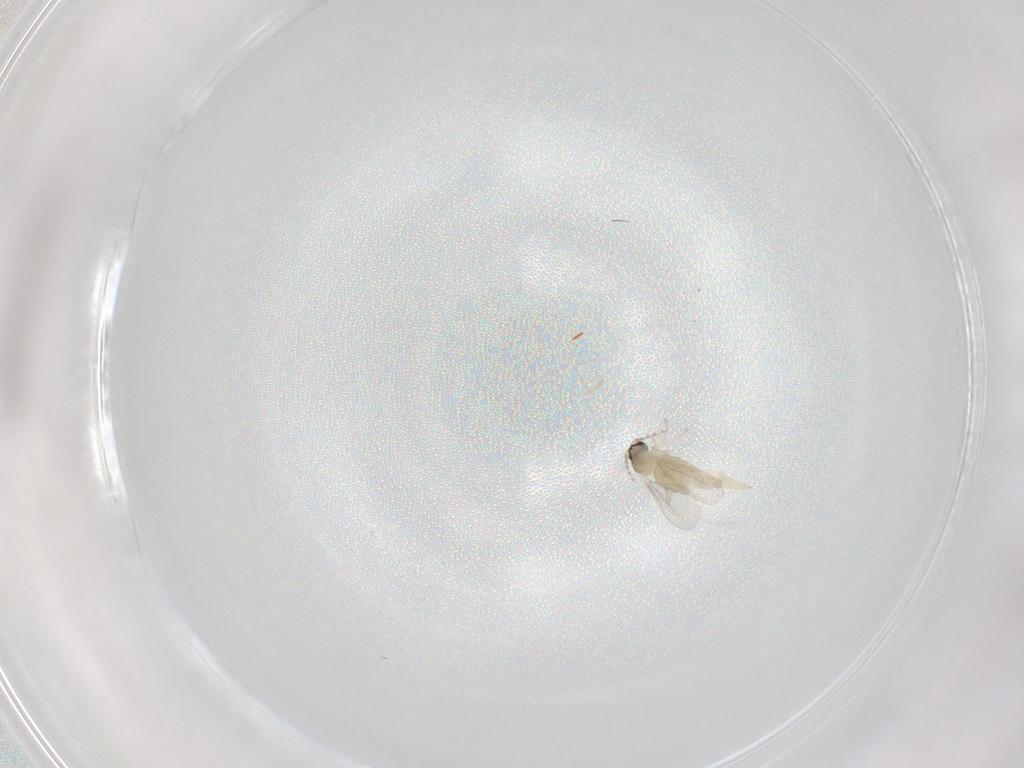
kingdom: Animalia
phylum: Arthropoda
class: Insecta
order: Diptera
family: Cecidomyiidae
